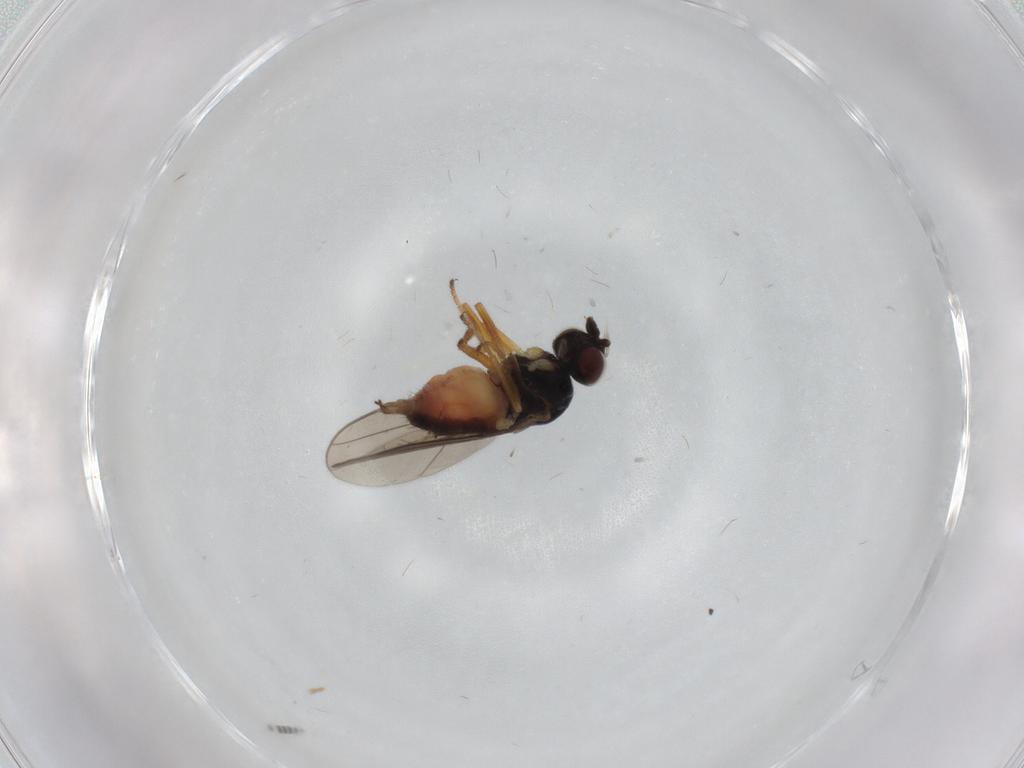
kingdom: Animalia
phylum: Arthropoda
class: Insecta
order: Diptera
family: Chloropidae
